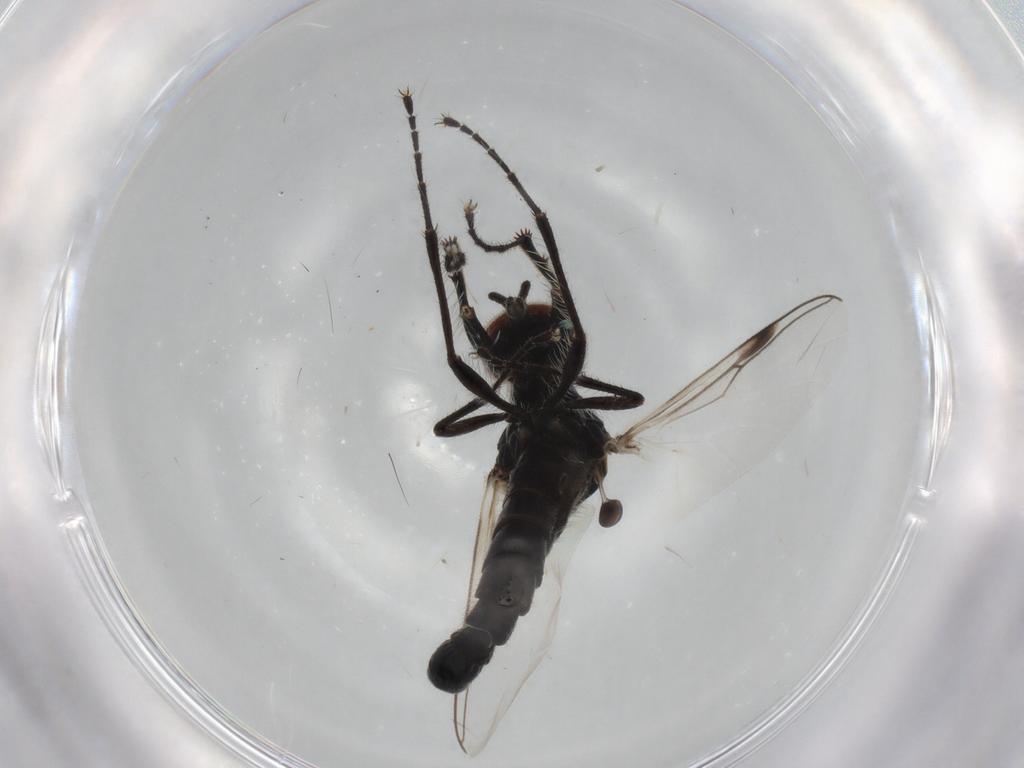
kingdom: Animalia
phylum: Arthropoda
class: Insecta
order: Diptera
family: Bibionidae
